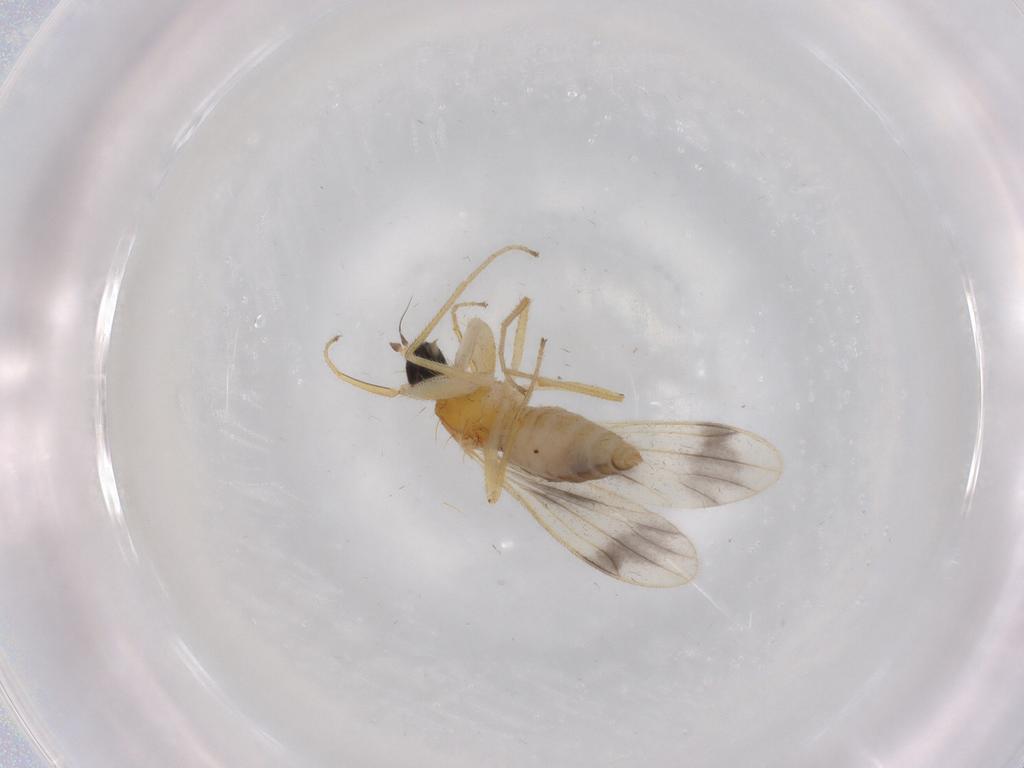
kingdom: Animalia
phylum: Arthropoda
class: Insecta
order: Diptera
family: Empididae
